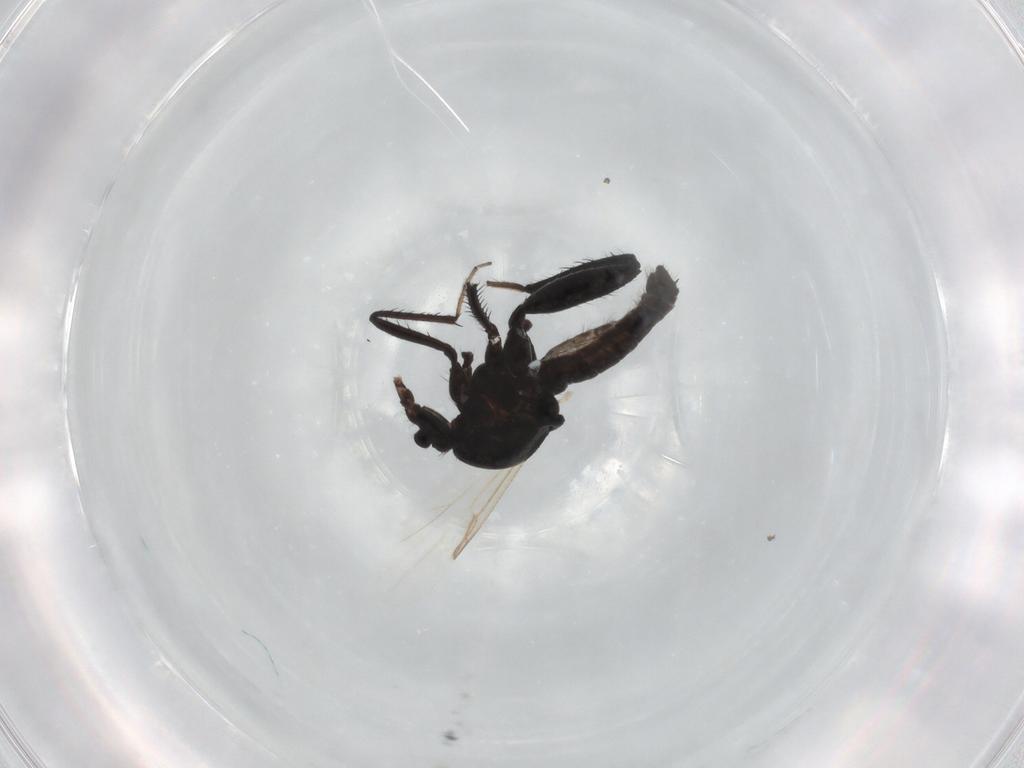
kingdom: Animalia
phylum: Arthropoda
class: Insecta
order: Diptera
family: Ceratopogonidae
